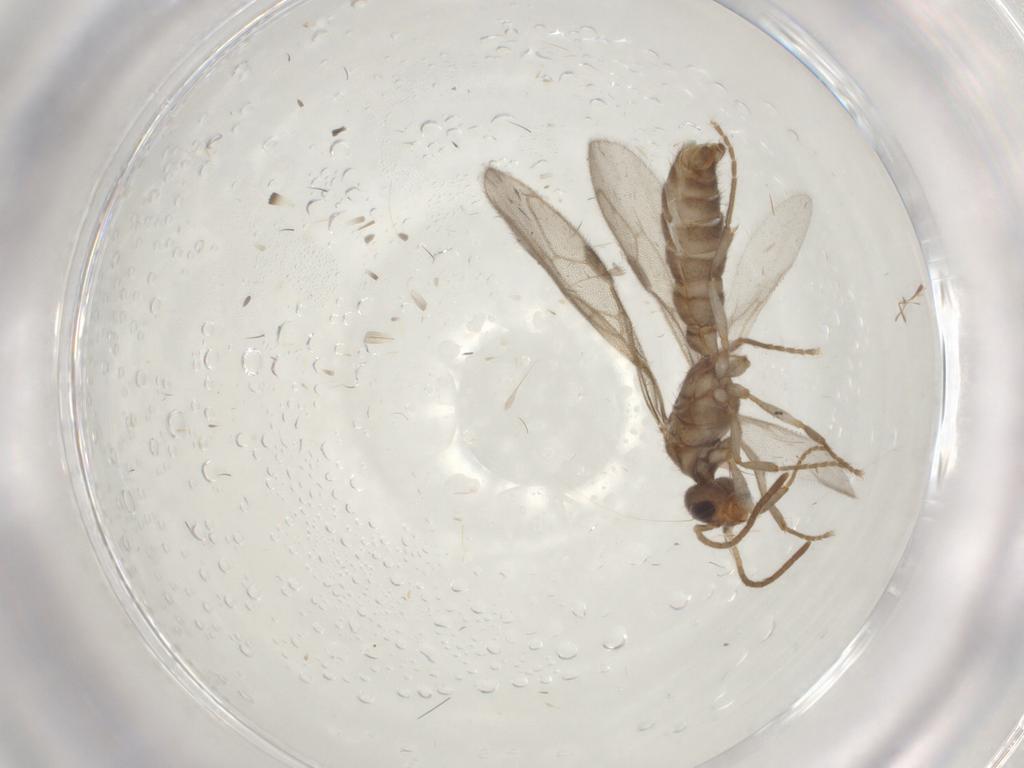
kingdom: Animalia
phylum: Arthropoda
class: Insecta
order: Hymenoptera
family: Formicidae
